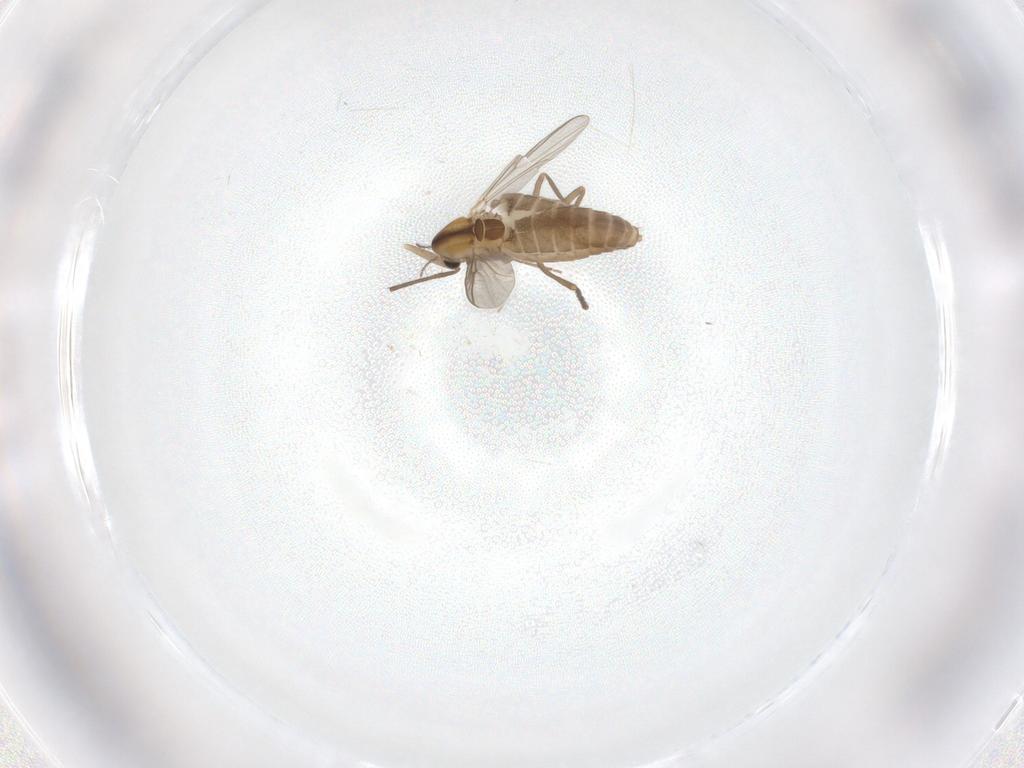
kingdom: Animalia
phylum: Arthropoda
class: Insecta
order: Diptera
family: Chironomidae
